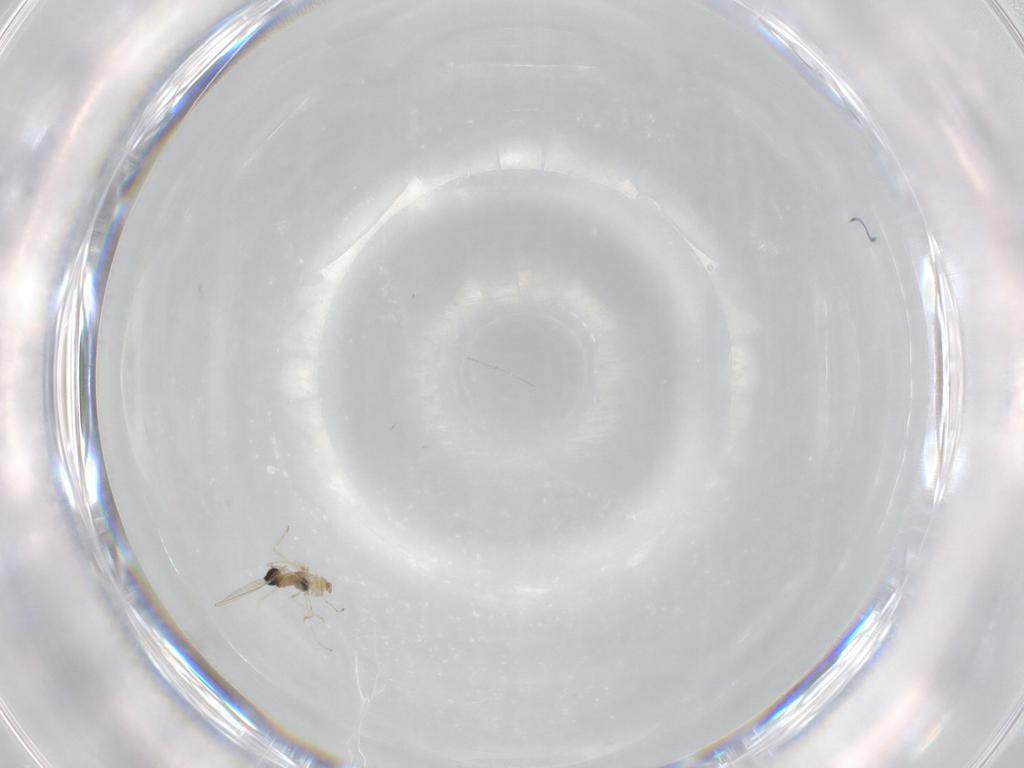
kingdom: Animalia
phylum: Arthropoda
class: Insecta
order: Diptera
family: Cecidomyiidae
